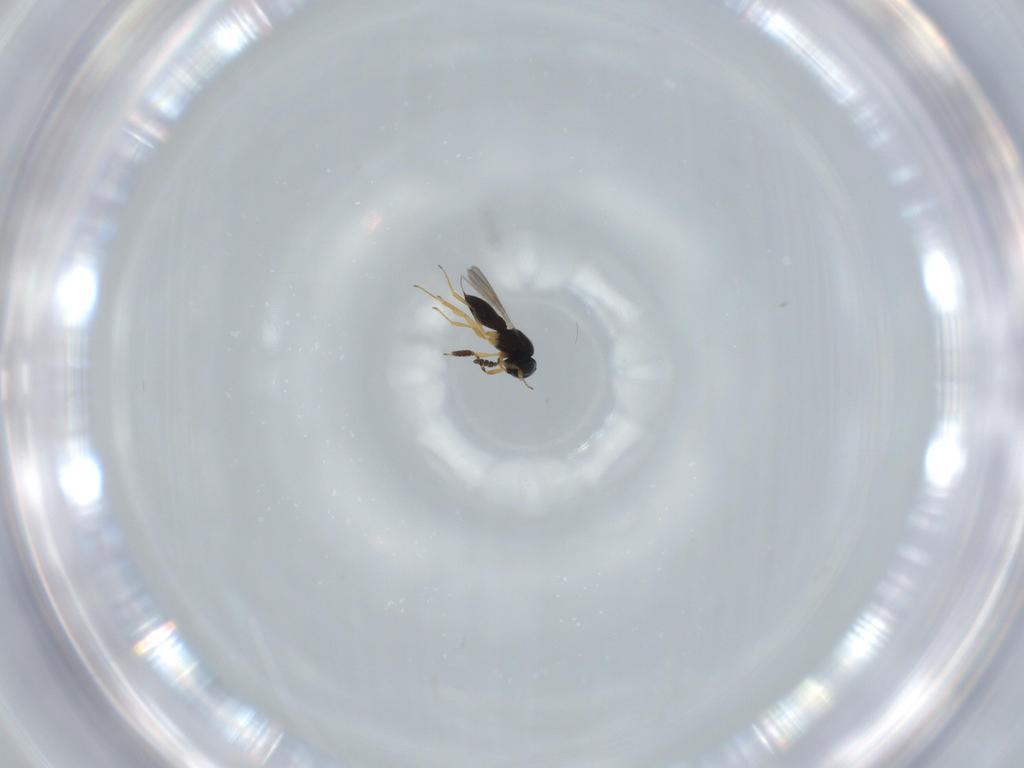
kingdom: Animalia
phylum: Arthropoda
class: Insecta
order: Hymenoptera
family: Scelionidae
